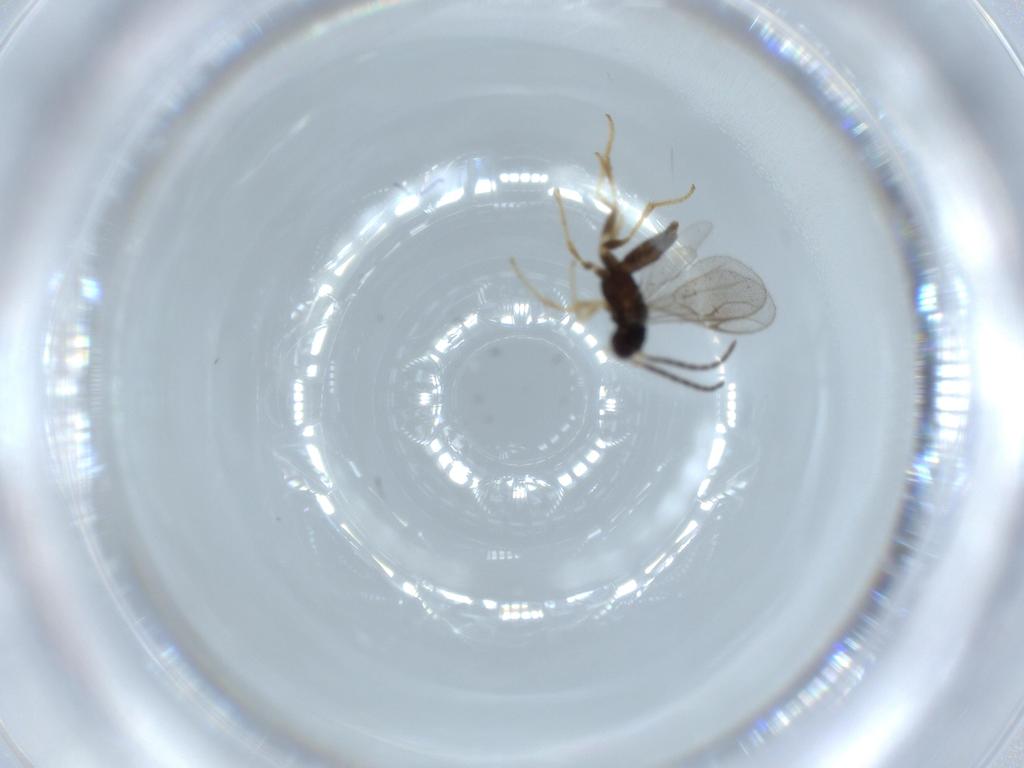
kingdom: Animalia
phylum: Arthropoda
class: Insecta
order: Hymenoptera
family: Dryinidae
